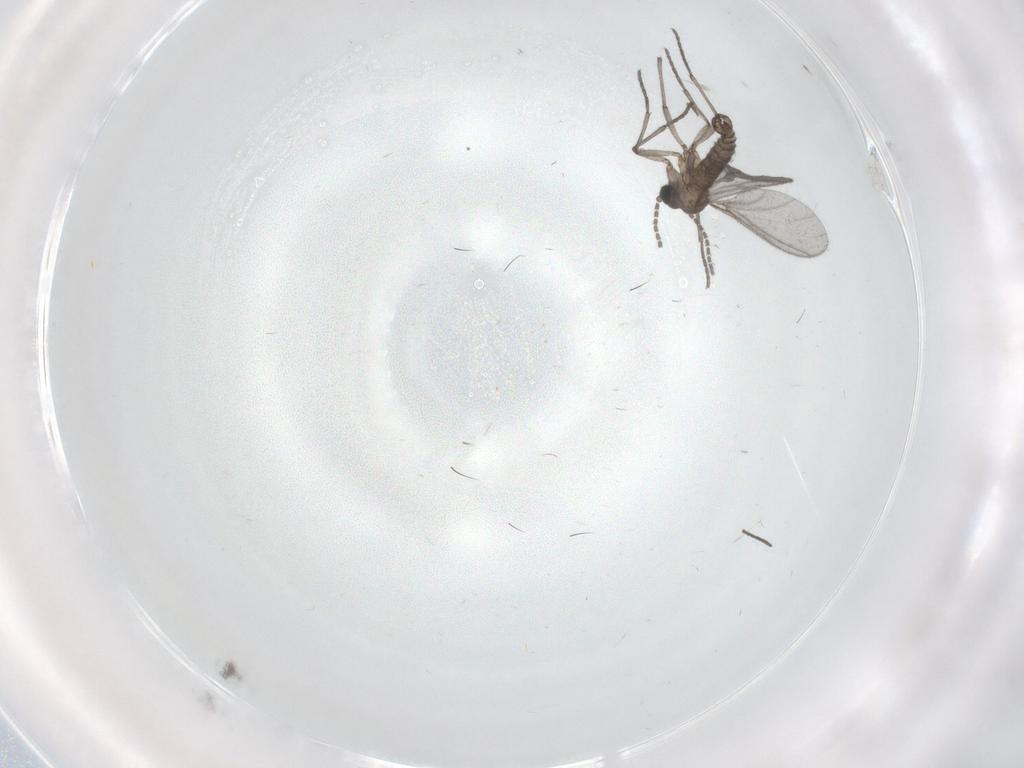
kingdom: Animalia
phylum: Arthropoda
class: Insecta
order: Diptera
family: Sciaridae
